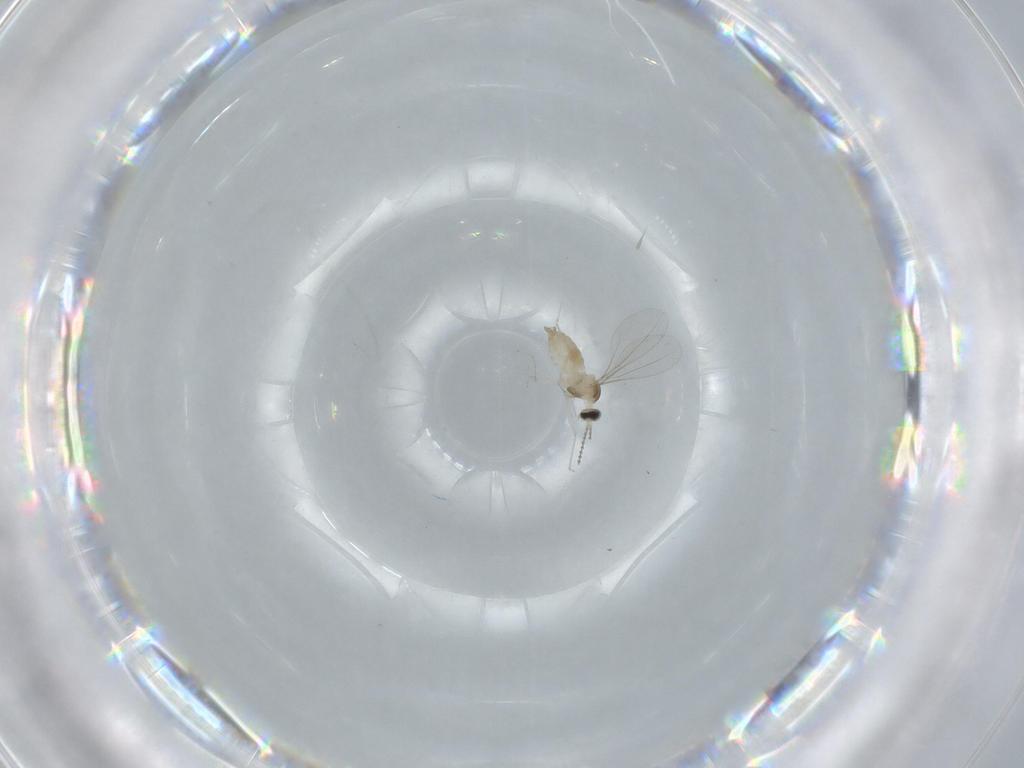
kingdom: Animalia
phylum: Arthropoda
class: Insecta
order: Diptera
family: Cecidomyiidae
